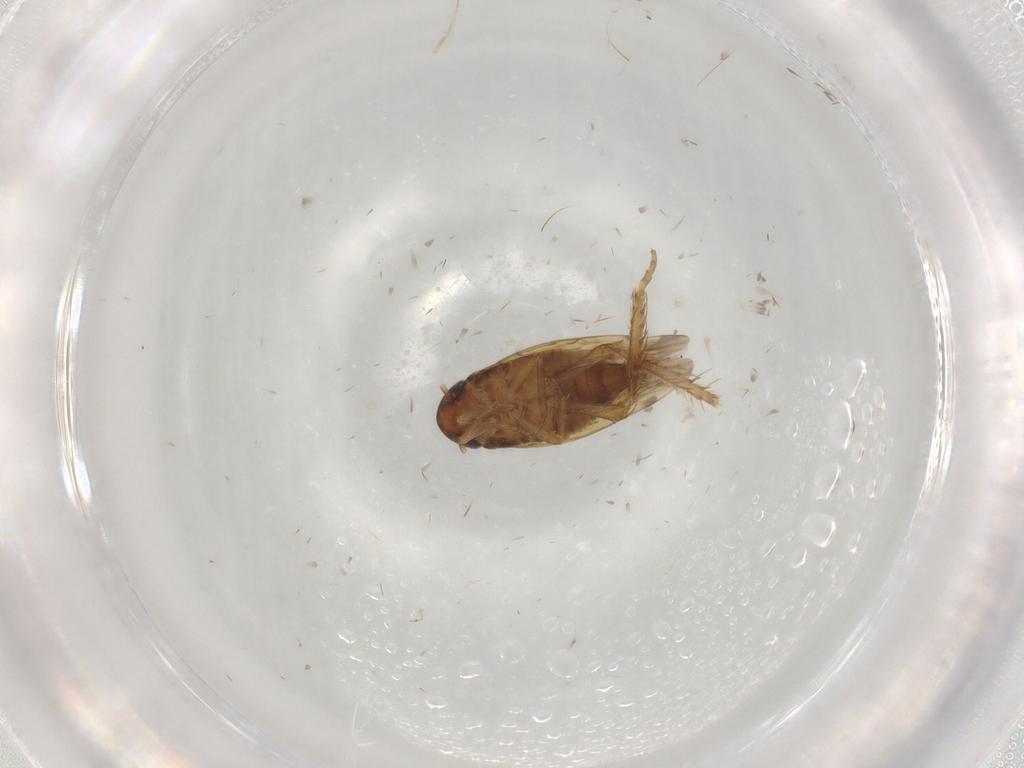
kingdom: Animalia
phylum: Arthropoda
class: Insecta
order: Hemiptera
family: Cicadellidae
